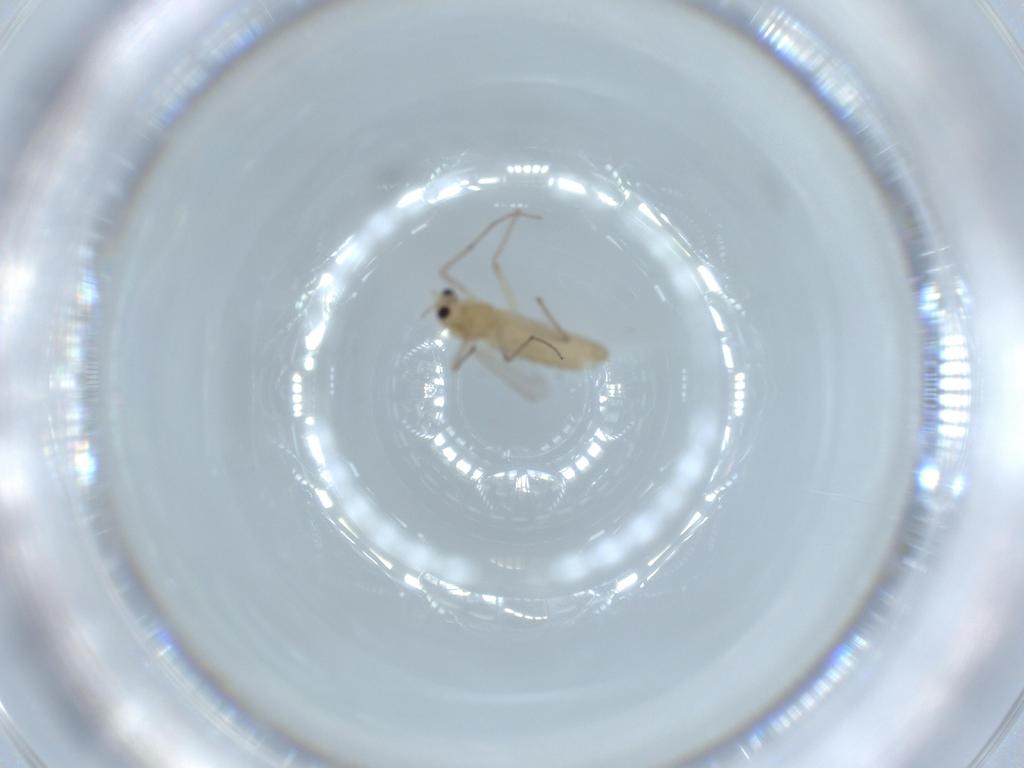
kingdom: Animalia
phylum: Arthropoda
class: Insecta
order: Diptera
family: Chironomidae
